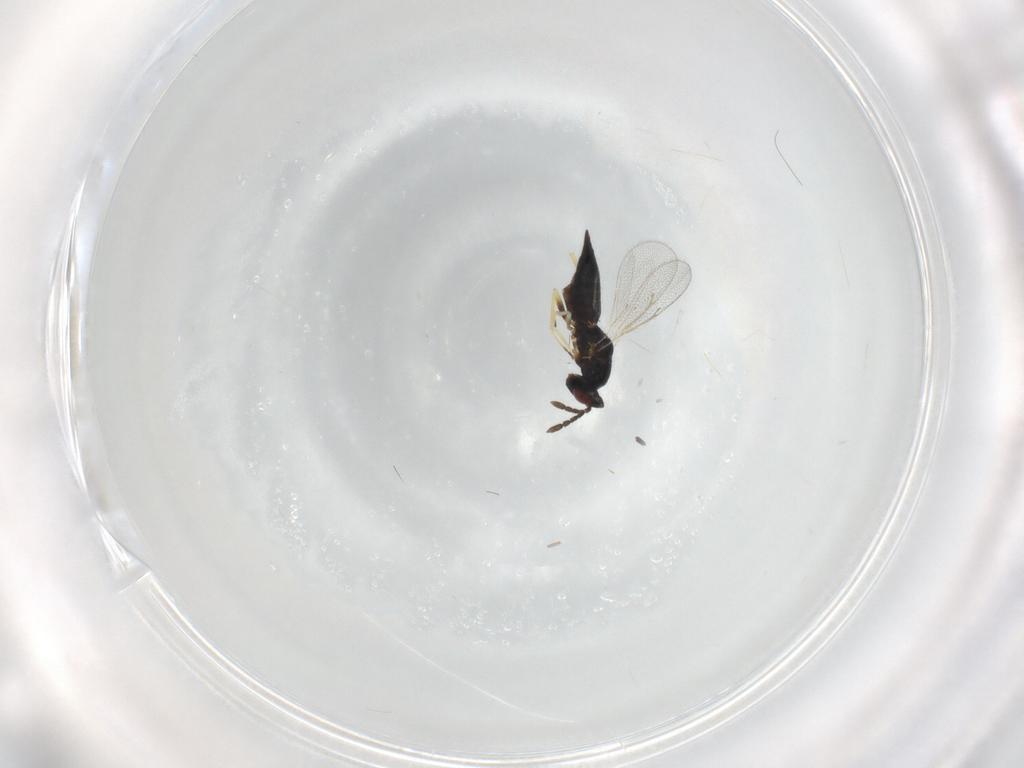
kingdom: Animalia
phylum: Arthropoda
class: Insecta
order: Hymenoptera
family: Eulophidae
